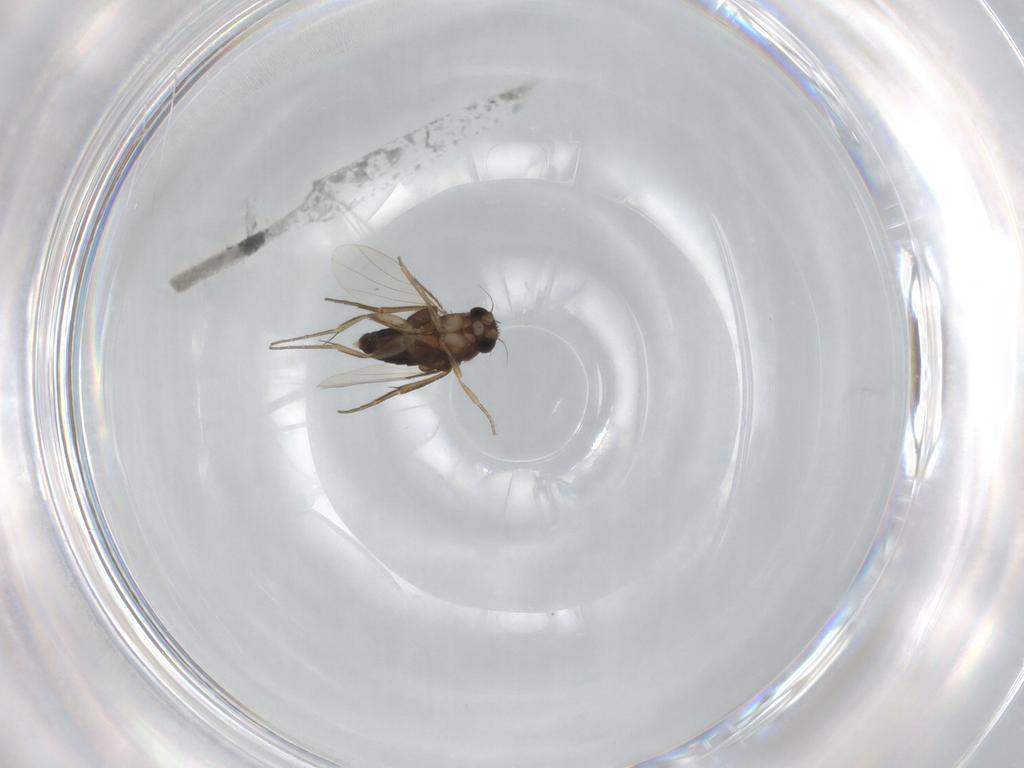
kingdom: Animalia
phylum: Arthropoda
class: Insecta
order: Diptera
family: Phoridae
